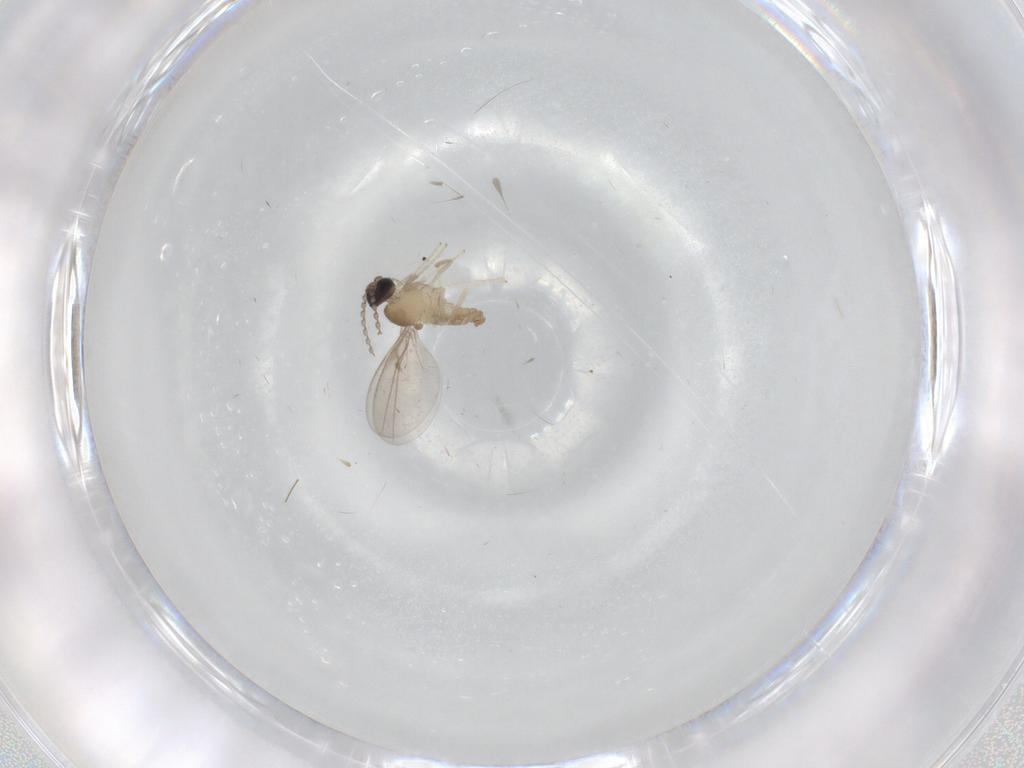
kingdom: Animalia
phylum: Arthropoda
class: Insecta
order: Diptera
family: Cecidomyiidae
